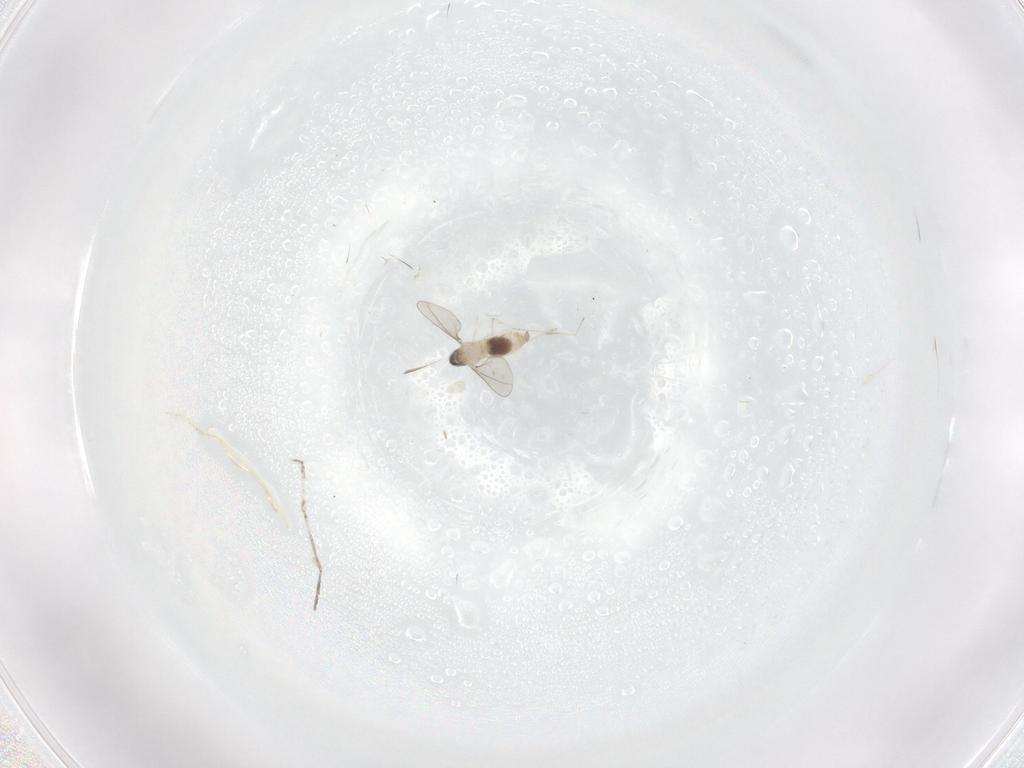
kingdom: Animalia
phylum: Arthropoda
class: Insecta
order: Diptera
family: Cecidomyiidae
